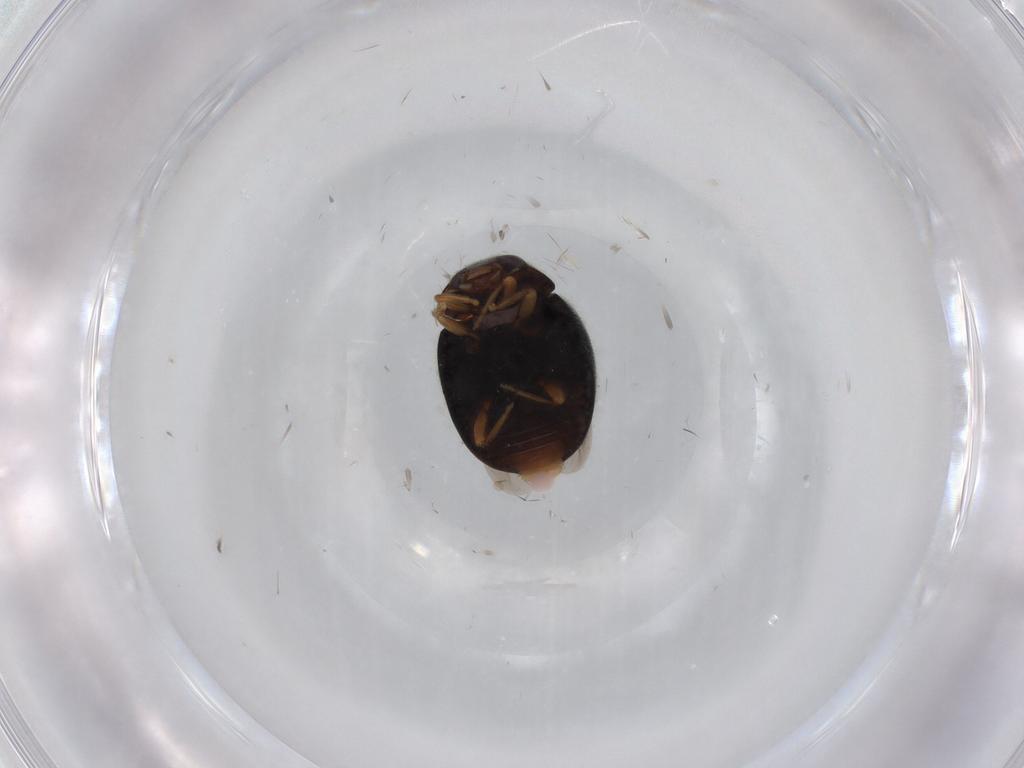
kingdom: Animalia
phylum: Arthropoda
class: Insecta
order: Coleoptera
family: Coccinellidae
